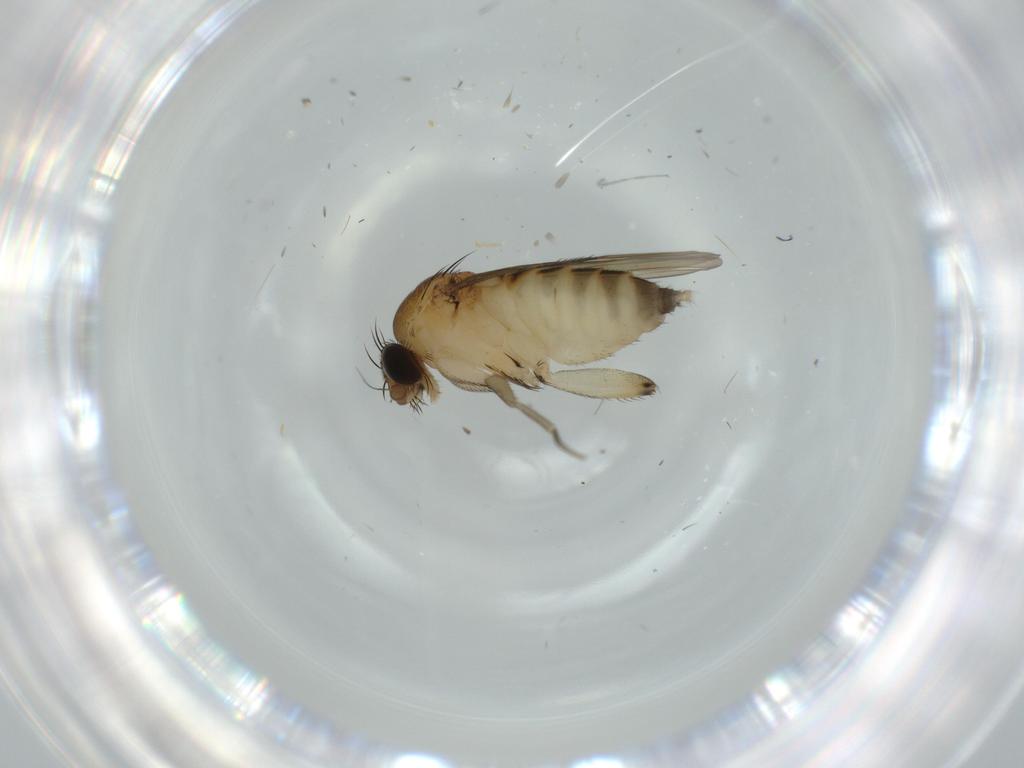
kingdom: Animalia
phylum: Arthropoda
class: Insecta
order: Diptera
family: Phoridae
